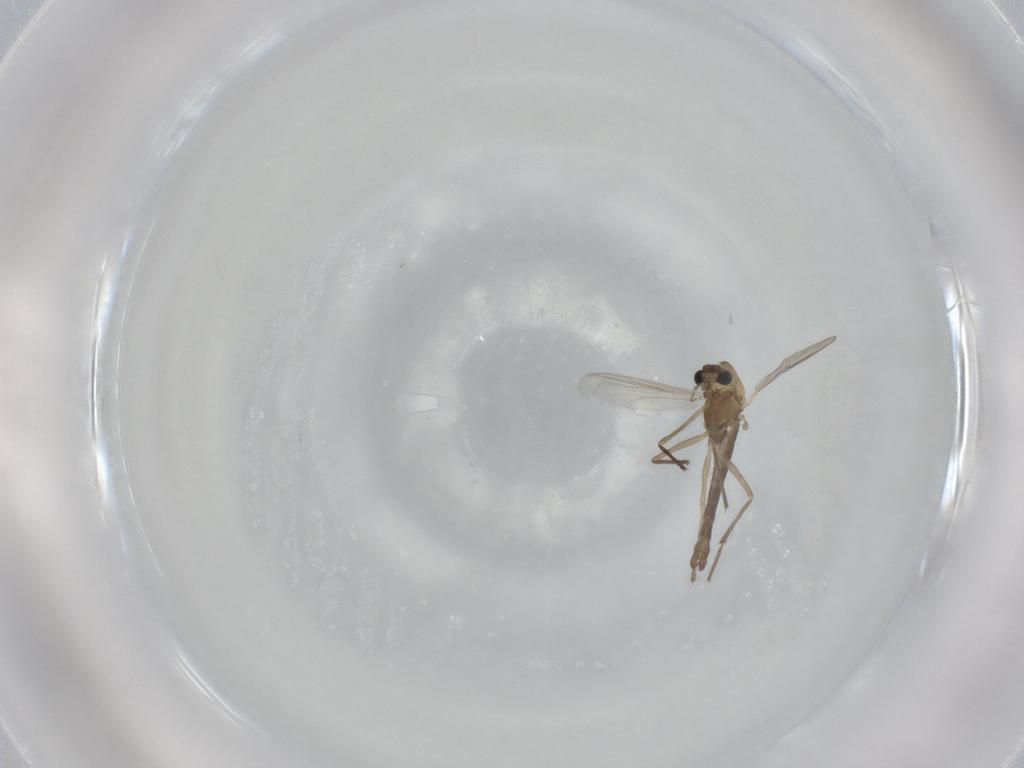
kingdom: Animalia
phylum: Arthropoda
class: Insecta
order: Diptera
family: Chironomidae
